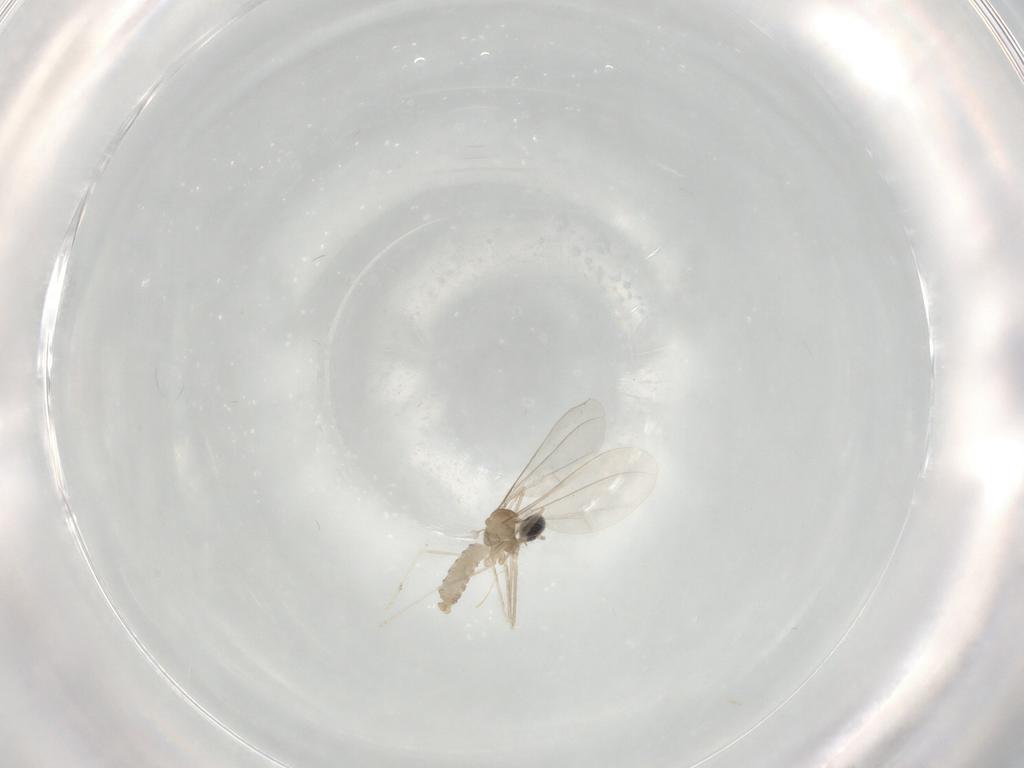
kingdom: Animalia
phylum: Arthropoda
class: Insecta
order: Diptera
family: Cecidomyiidae
